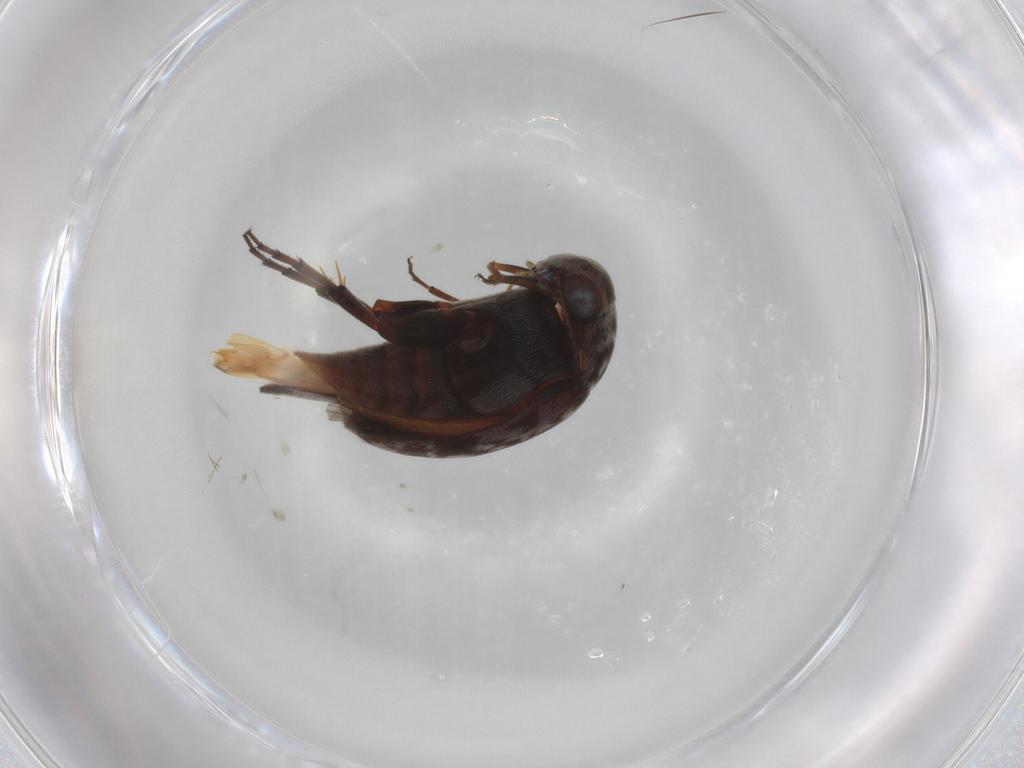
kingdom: Animalia
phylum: Arthropoda
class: Insecta
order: Coleoptera
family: Mordellidae
